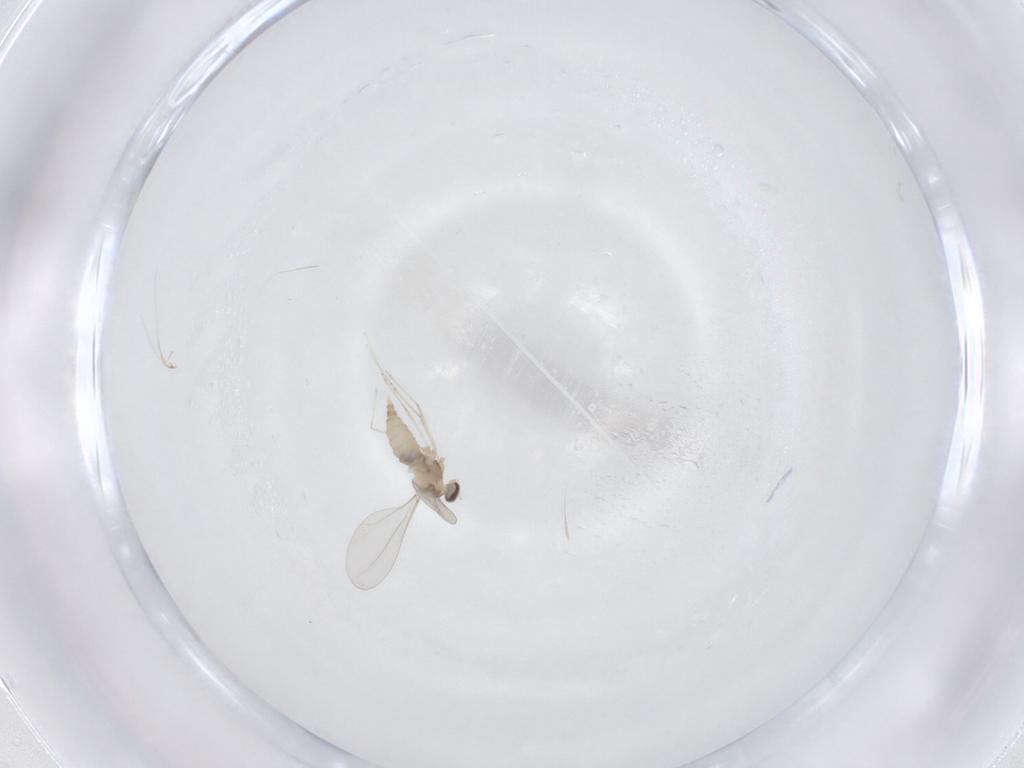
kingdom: Animalia
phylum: Arthropoda
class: Insecta
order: Diptera
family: Cecidomyiidae
